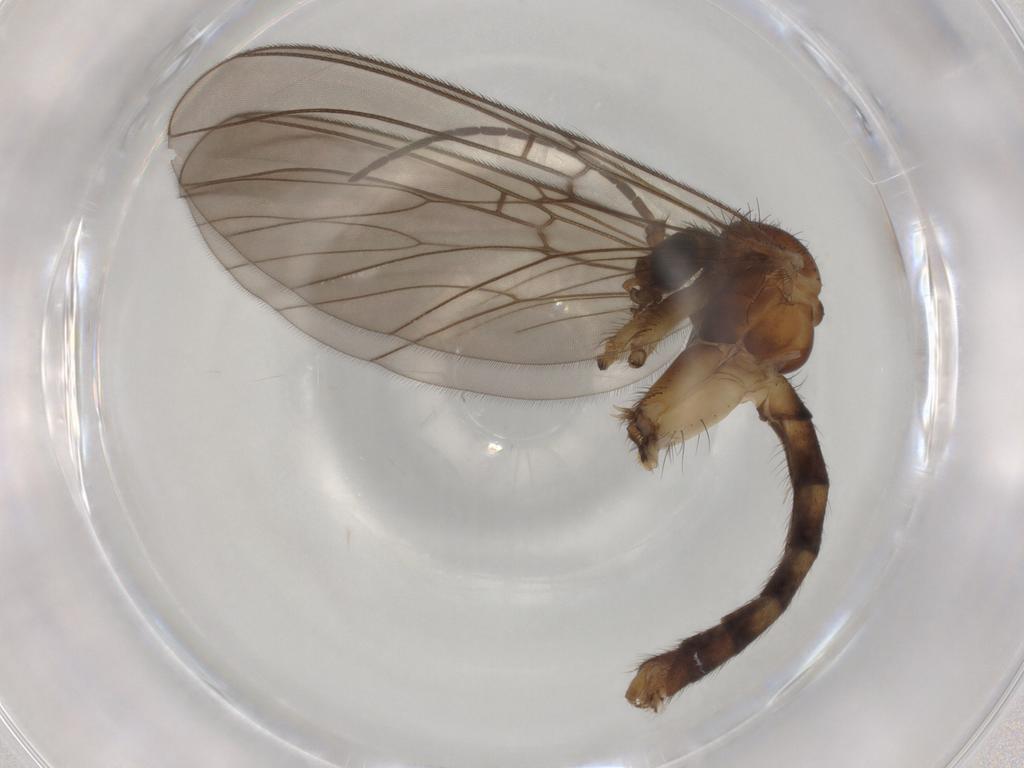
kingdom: Animalia
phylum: Arthropoda
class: Insecta
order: Diptera
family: Mycetophilidae
